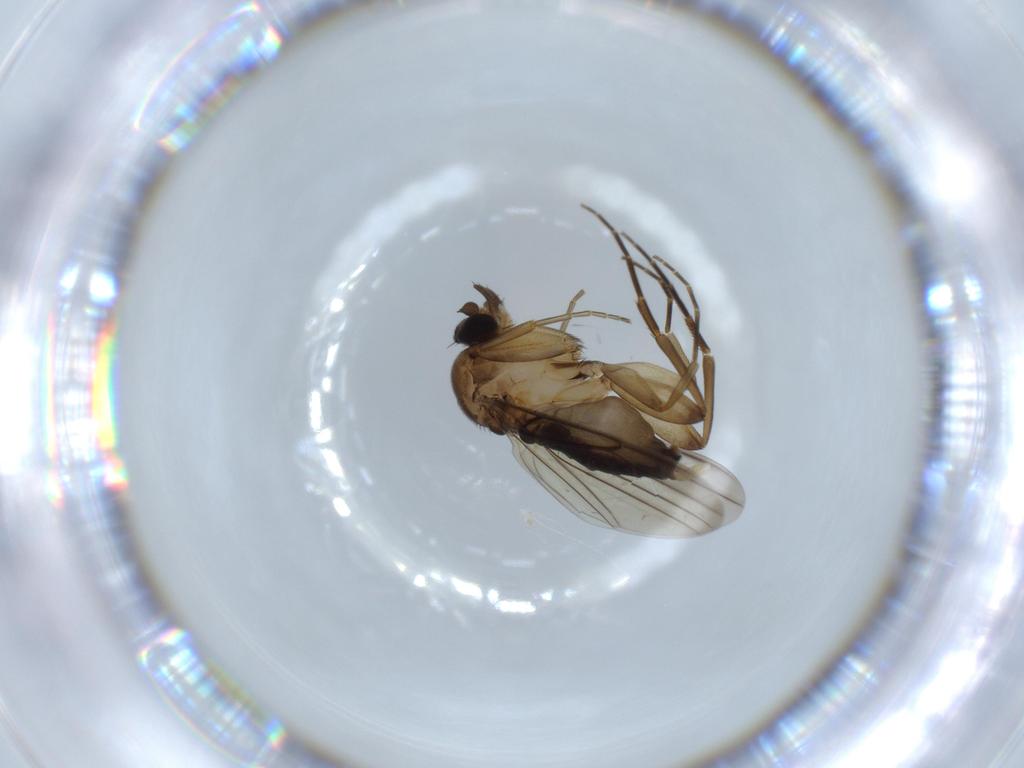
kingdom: Animalia
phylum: Arthropoda
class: Insecta
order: Diptera
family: Phoridae
